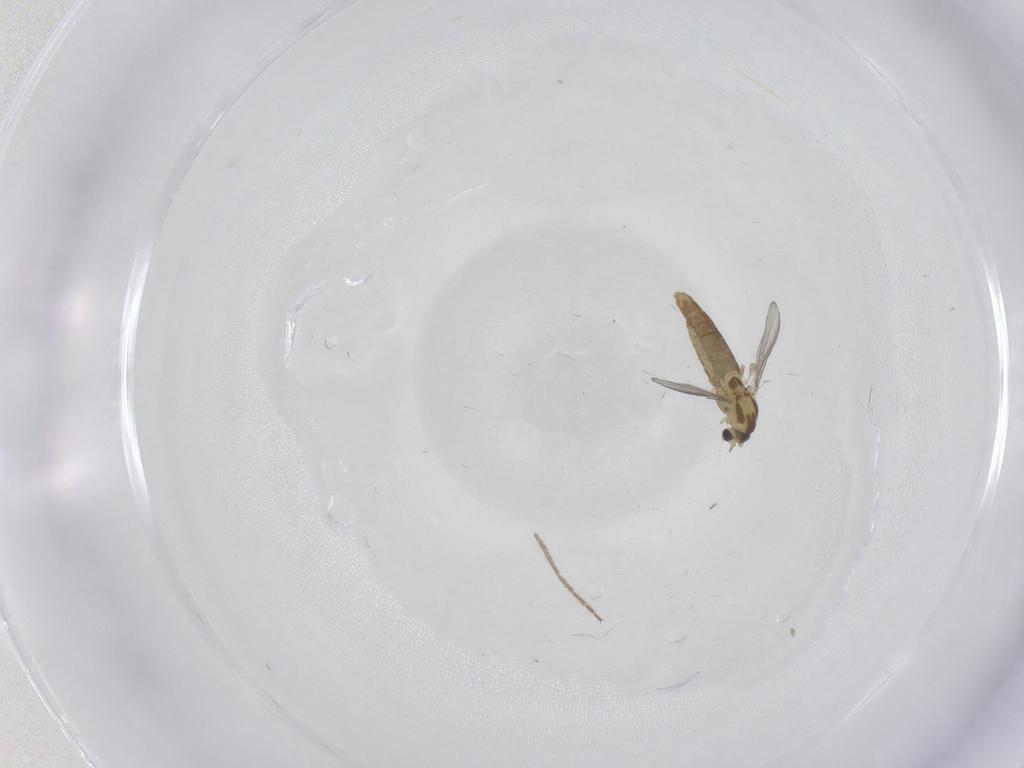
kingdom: Animalia
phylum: Arthropoda
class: Insecta
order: Diptera
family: Chironomidae
